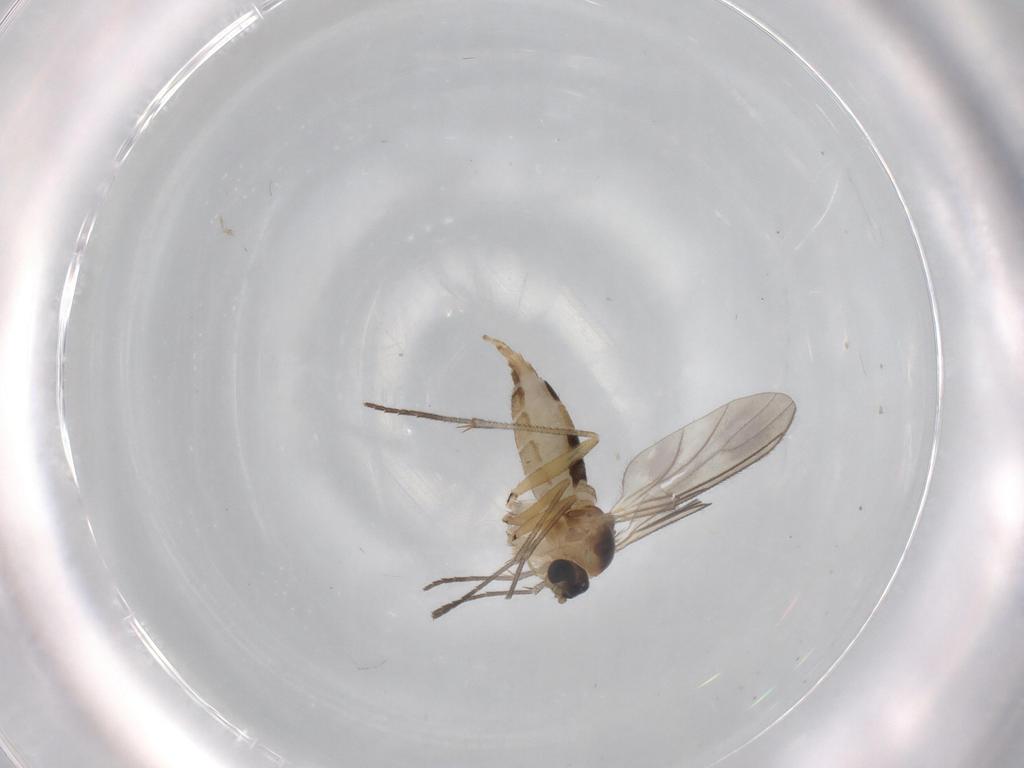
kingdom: Animalia
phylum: Arthropoda
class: Insecta
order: Diptera
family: Sciaridae
